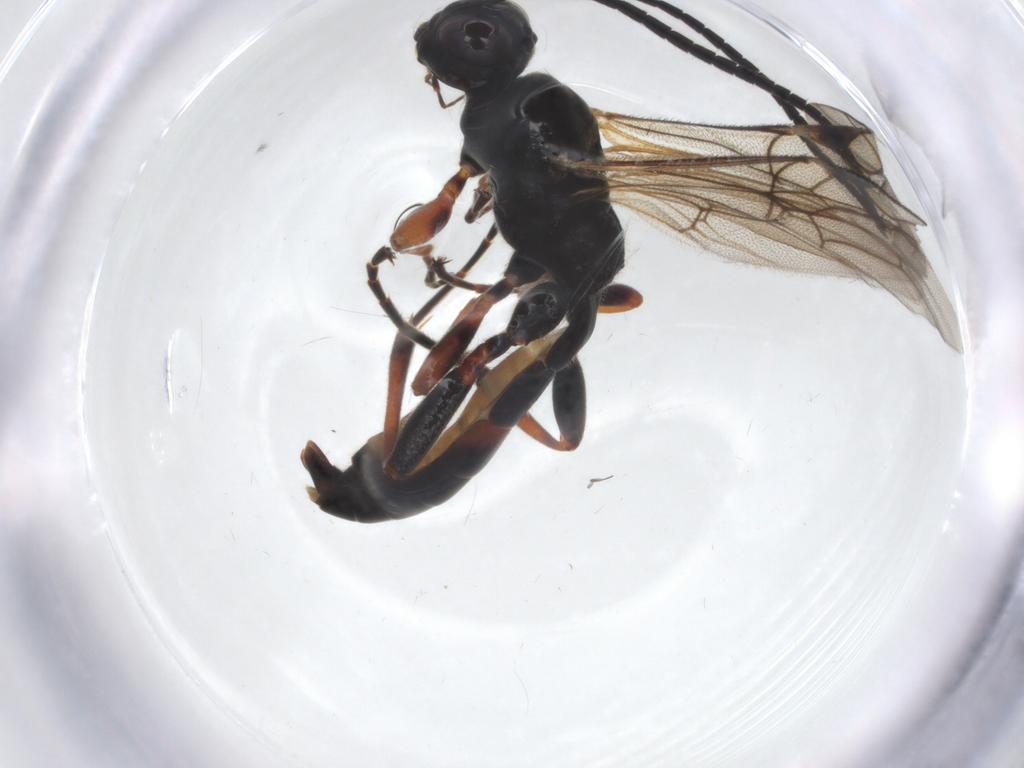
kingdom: Animalia
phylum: Arthropoda
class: Insecta
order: Hymenoptera
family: Ichneumonidae
